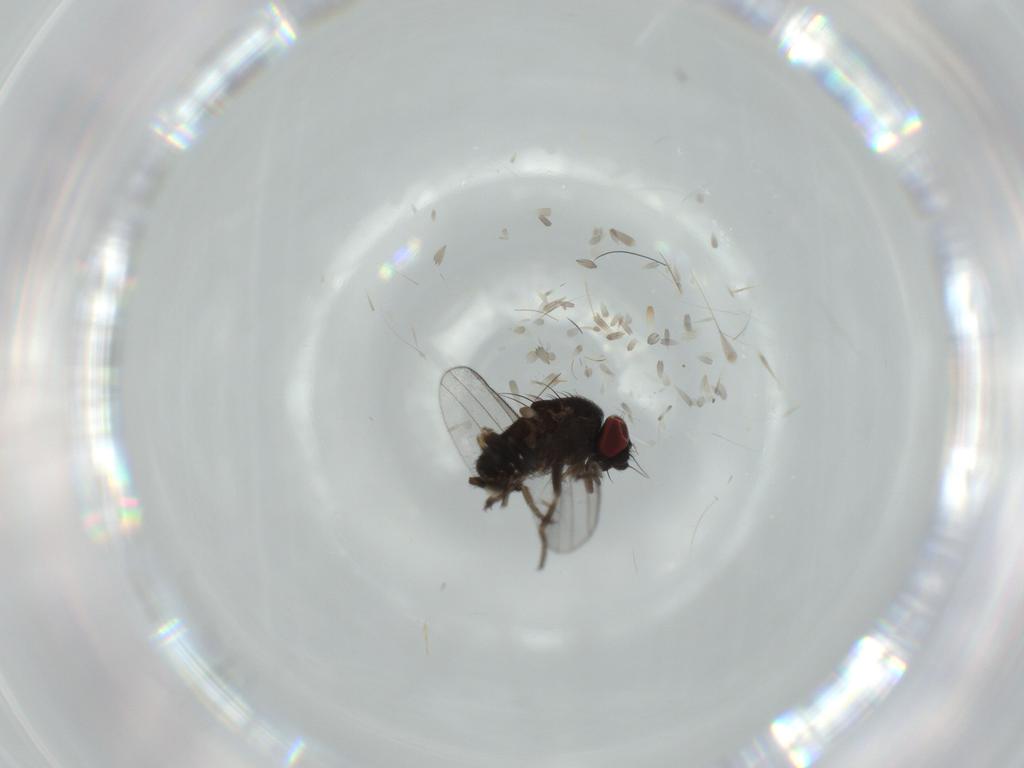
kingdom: Animalia
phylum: Arthropoda
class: Insecta
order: Diptera
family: Milichiidae
